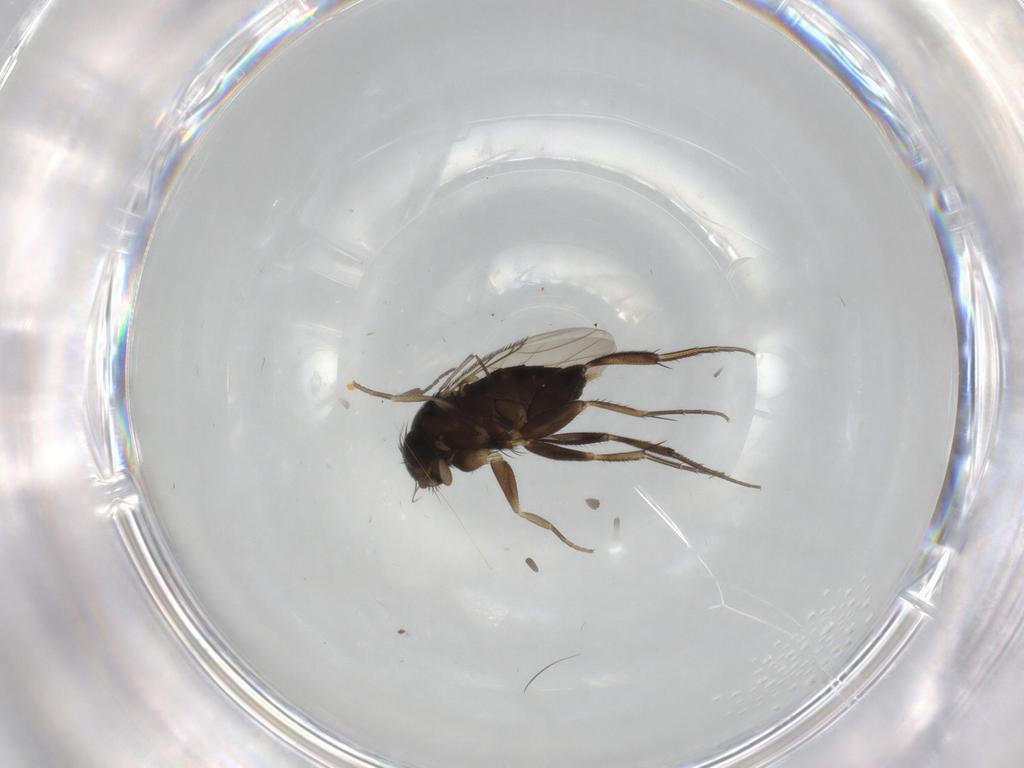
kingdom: Animalia
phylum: Arthropoda
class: Insecta
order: Diptera
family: Phoridae
